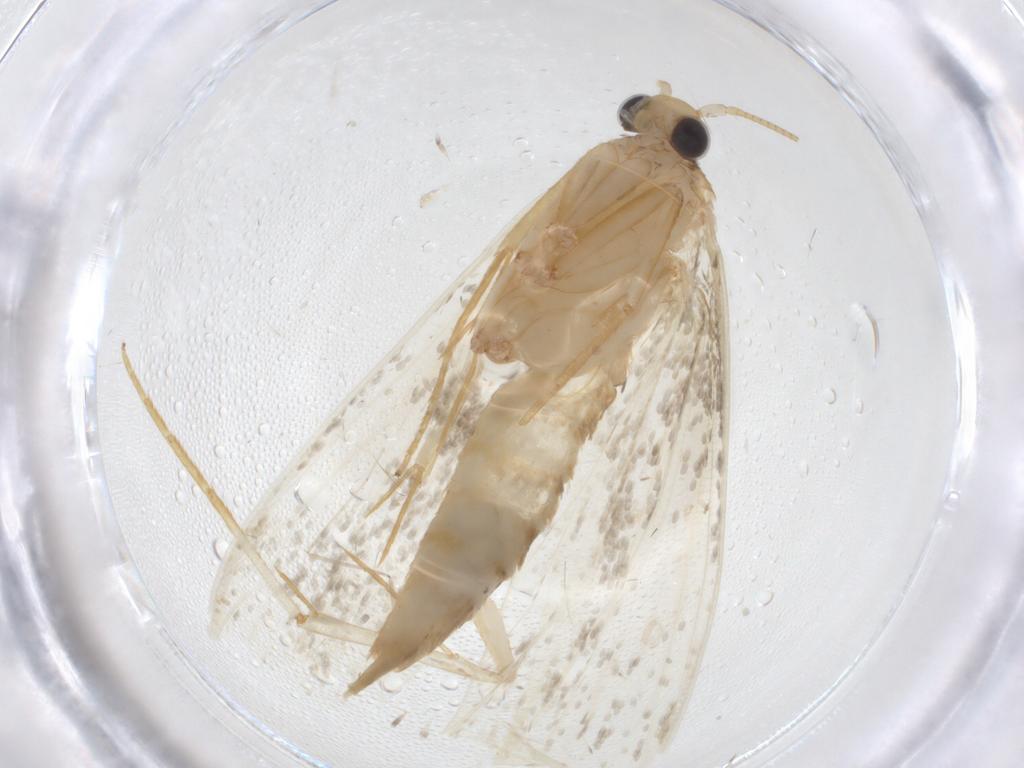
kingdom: Animalia
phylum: Arthropoda
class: Insecta
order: Lepidoptera
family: Tineidae
